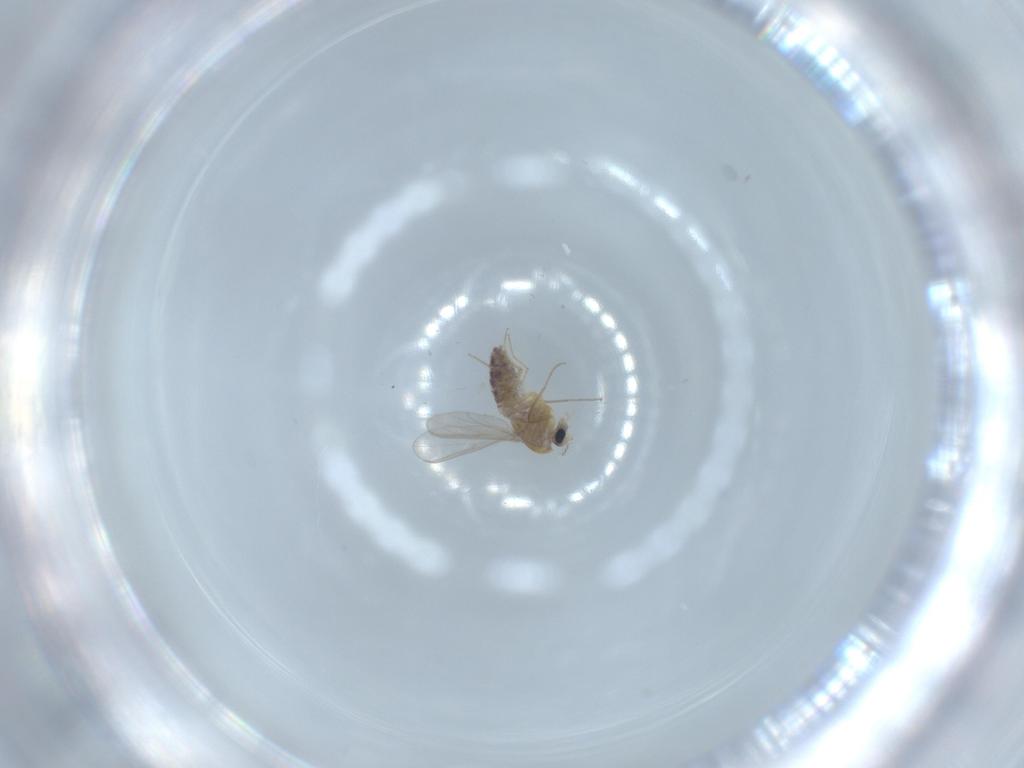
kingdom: Animalia
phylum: Arthropoda
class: Insecta
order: Diptera
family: Chironomidae
